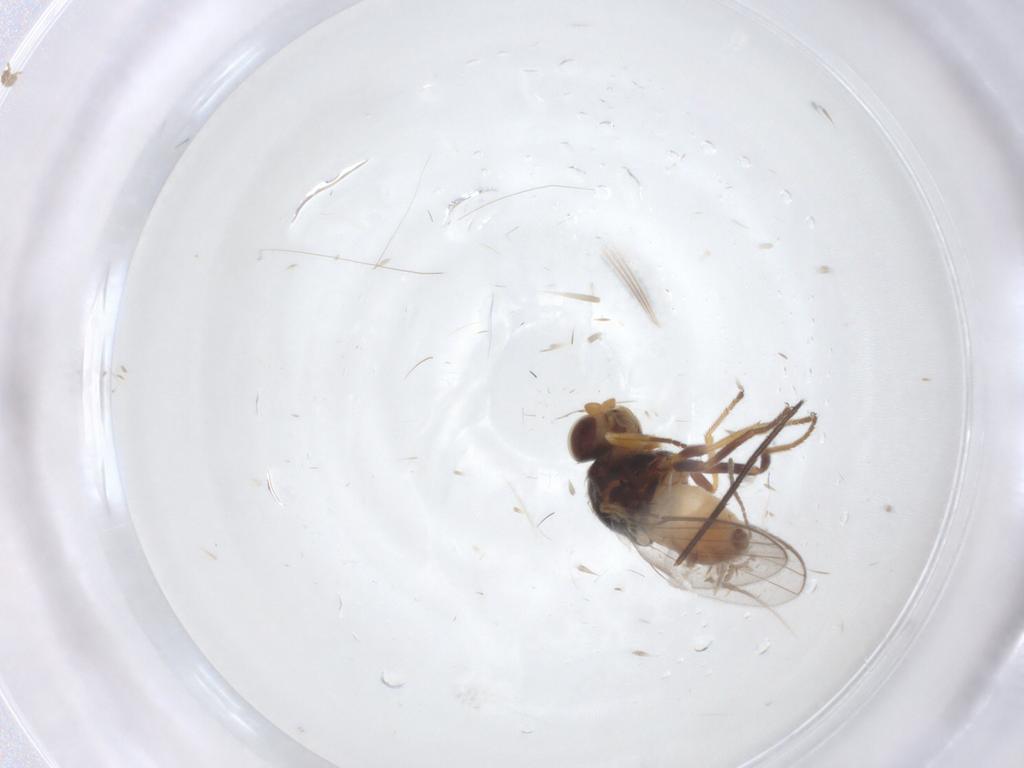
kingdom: Animalia
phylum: Arthropoda
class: Insecta
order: Diptera
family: Chloropidae
